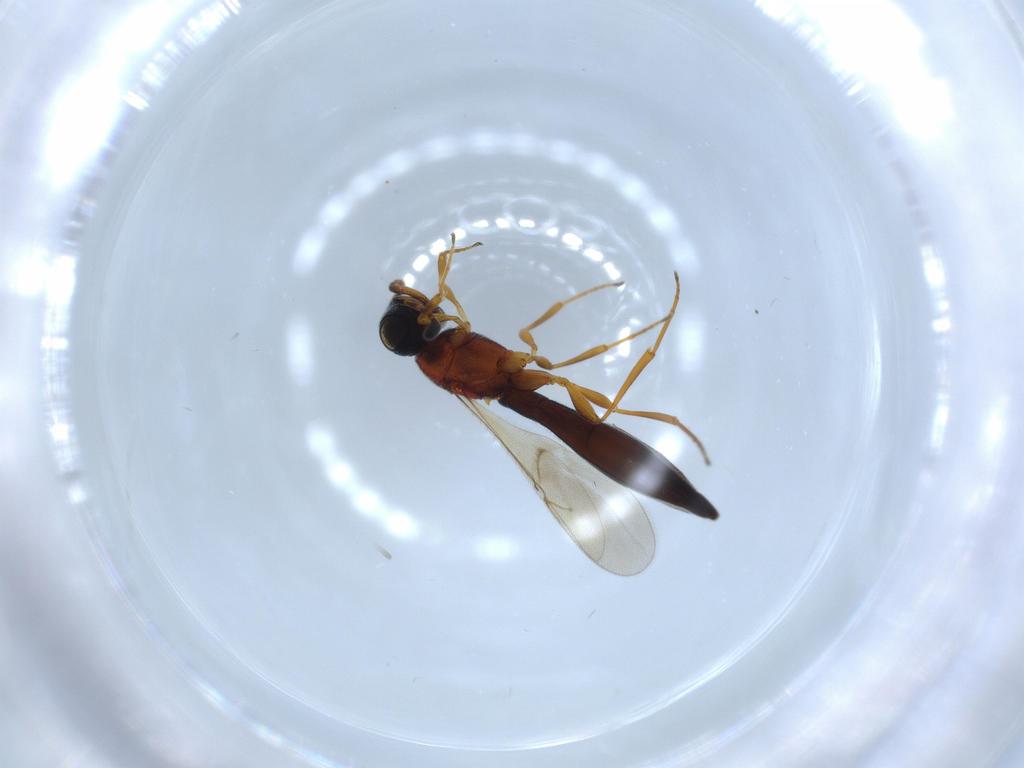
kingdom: Animalia
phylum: Arthropoda
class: Insecta
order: Hymenoptera
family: Scelionidae
